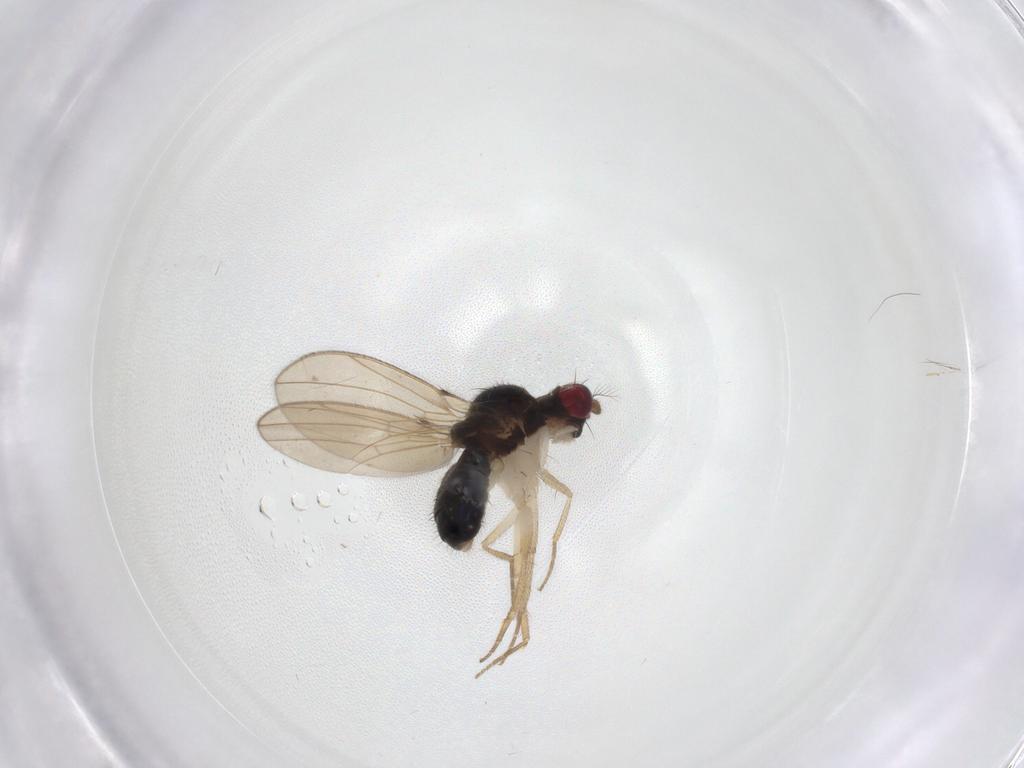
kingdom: Animalia
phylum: Arthropoda
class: Insecta
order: Diptera
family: Drosophilidae
